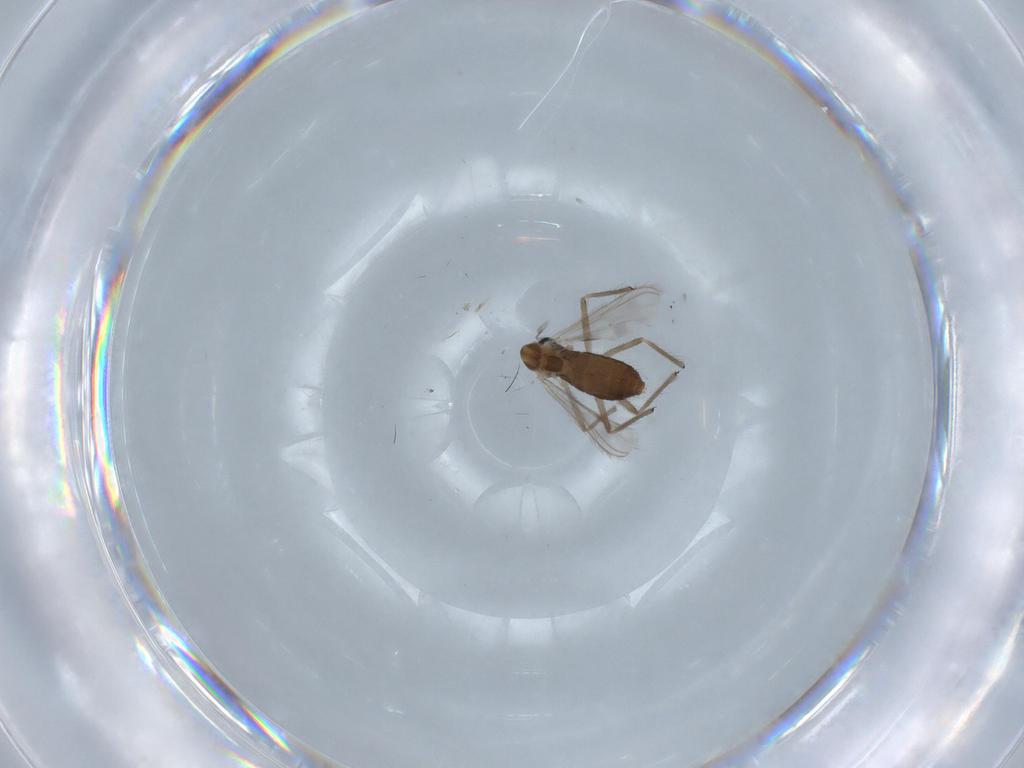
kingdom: Animalia
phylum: Arthropoda
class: Insecta
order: Diptera
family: Chironomidae
